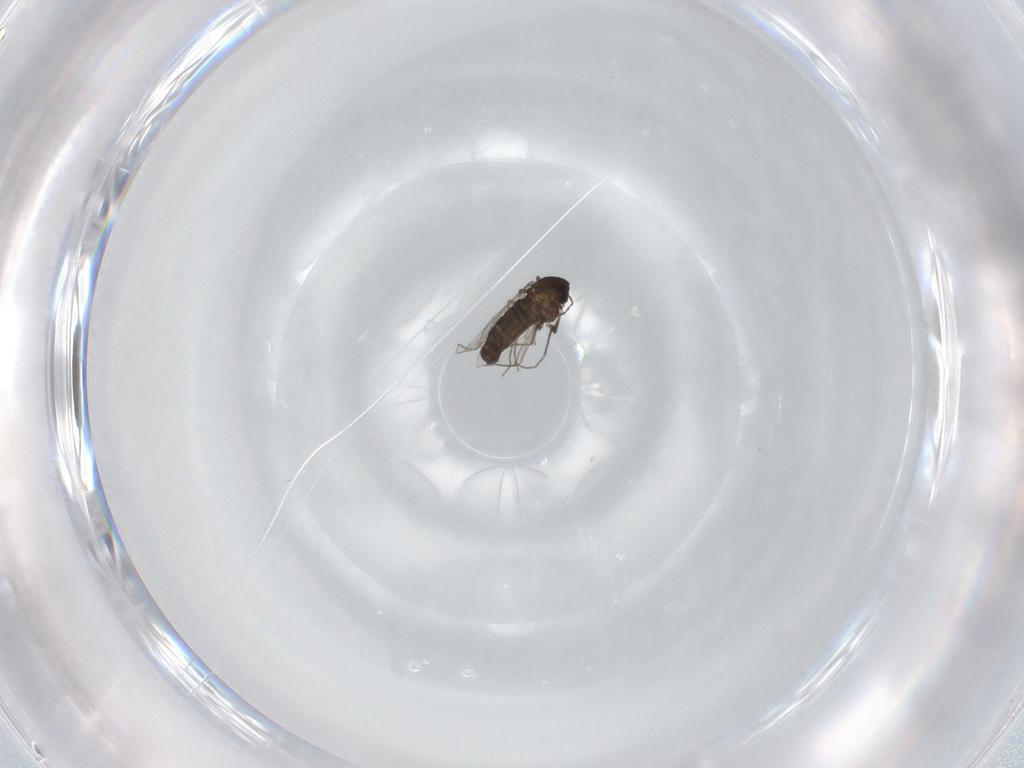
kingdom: Animalia
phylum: Arthropoda
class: Insecta
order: Diptera
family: Chironomidae
